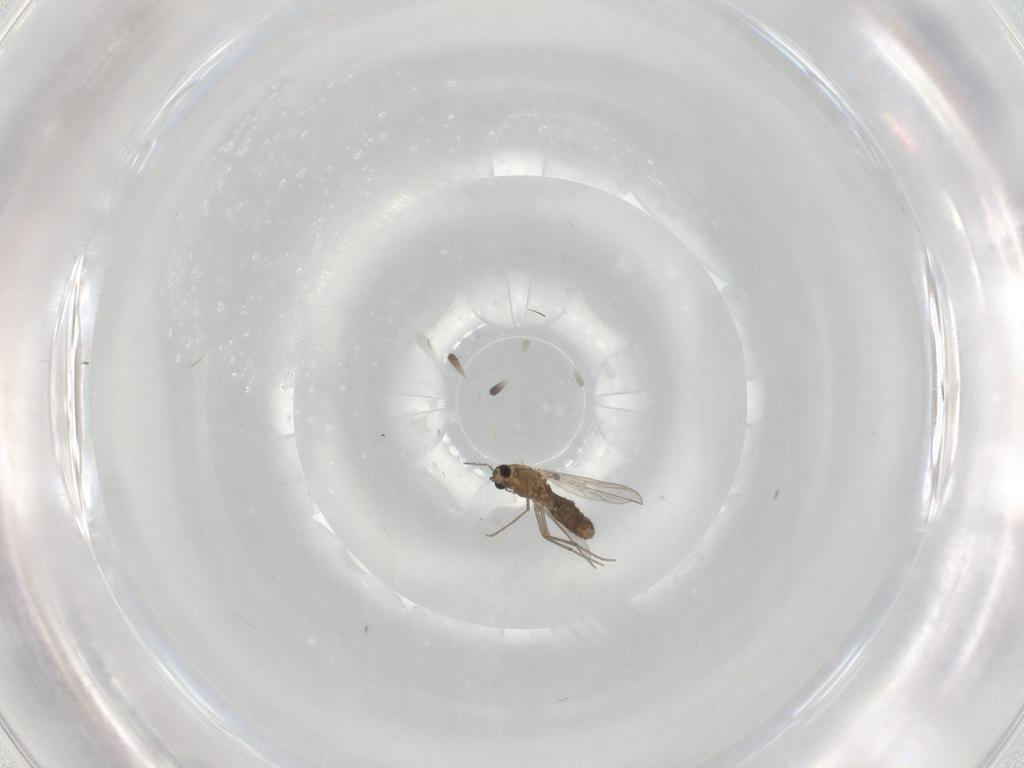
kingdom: Animalia
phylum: Arthropoda
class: Insecta
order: Diptera
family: Chironomidae
